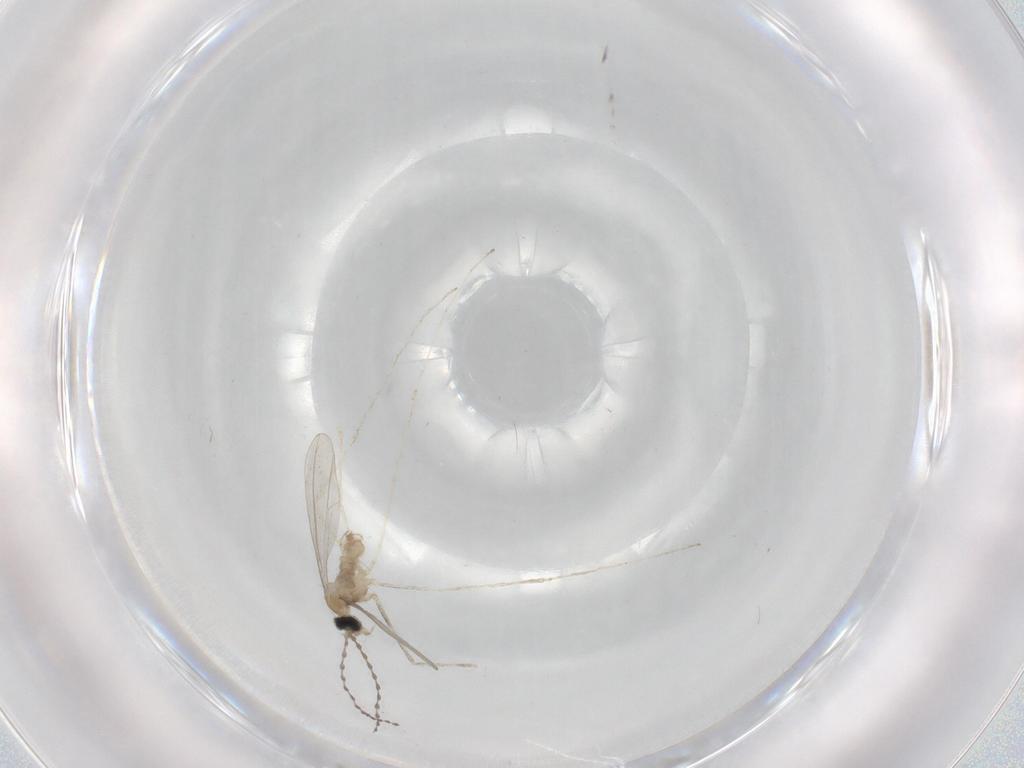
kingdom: Animalia
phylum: Arthropoda
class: Insecta
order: Diptera
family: Cecidomyiidae
